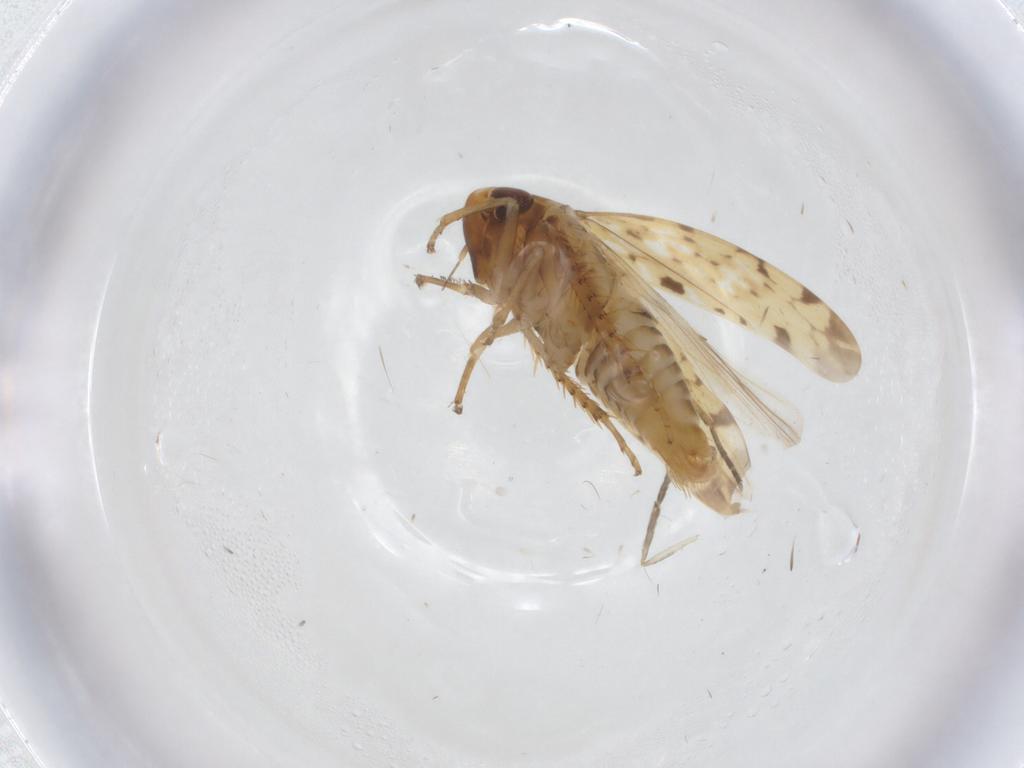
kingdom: Animalia
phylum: Arthropoda
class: Insecta
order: Hemiptera
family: Cicadellidae
